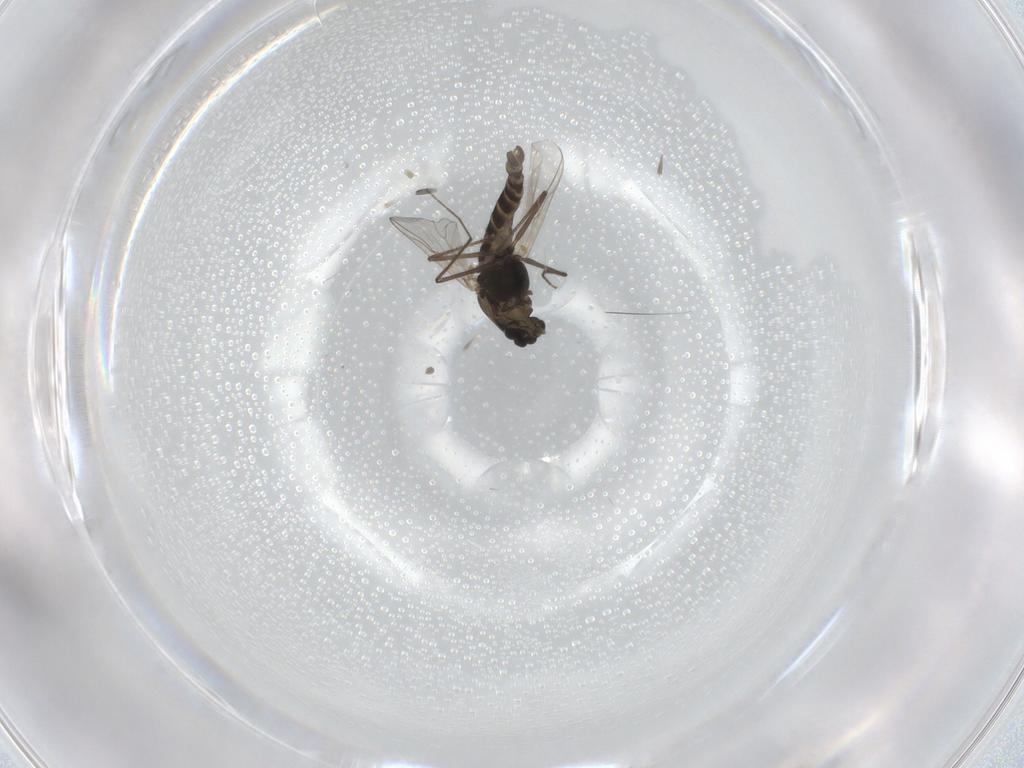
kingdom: Animalia
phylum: Arthropoda
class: Insecta
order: Diptera
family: Chironomidae
